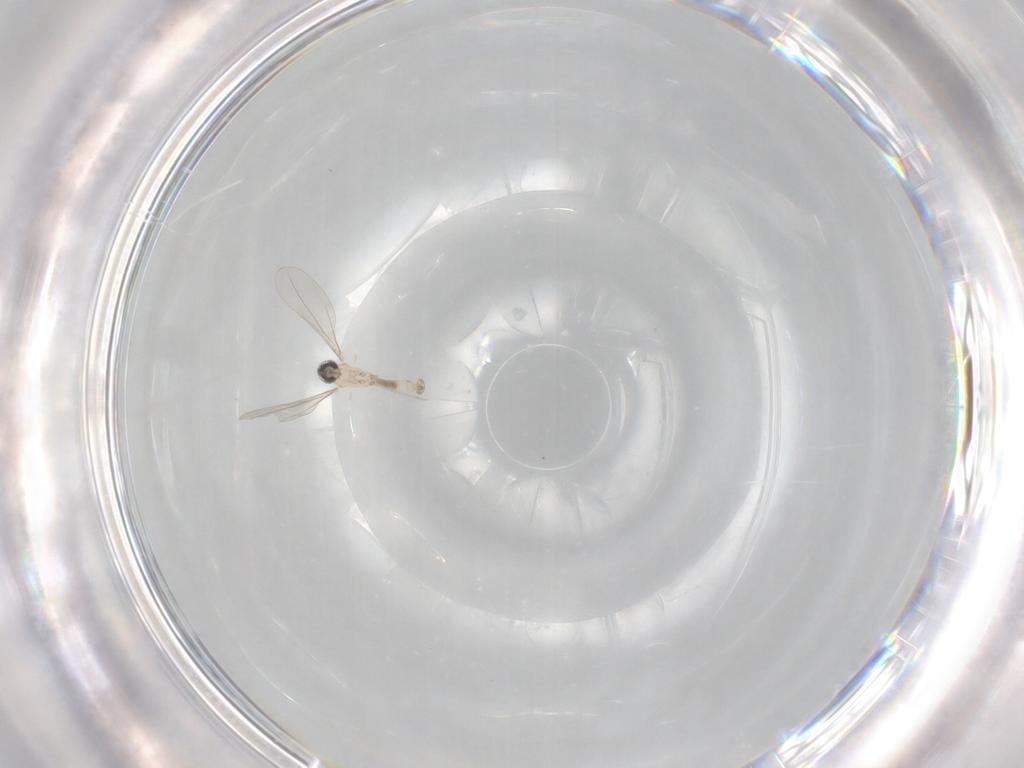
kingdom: Animalia
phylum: Arthropoda
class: Insecta
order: Diptera
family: Cecidomyiidae
